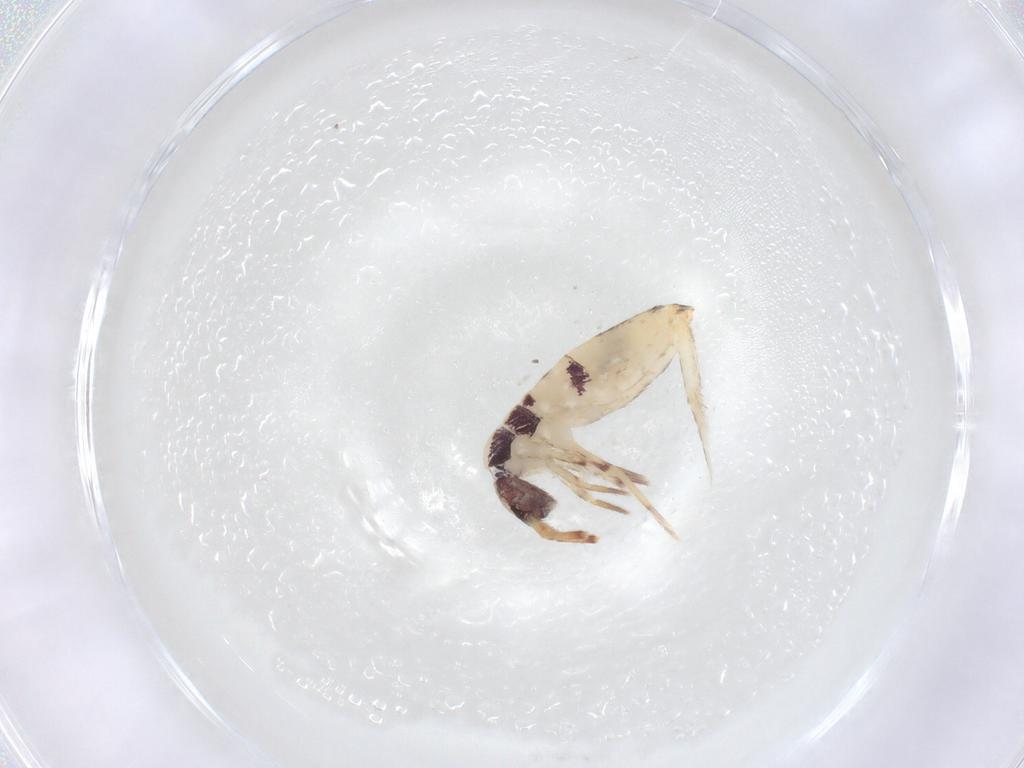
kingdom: Animalia
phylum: Arthropoda
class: Collembola
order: Entomobryomorpha
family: Entomobryidae
